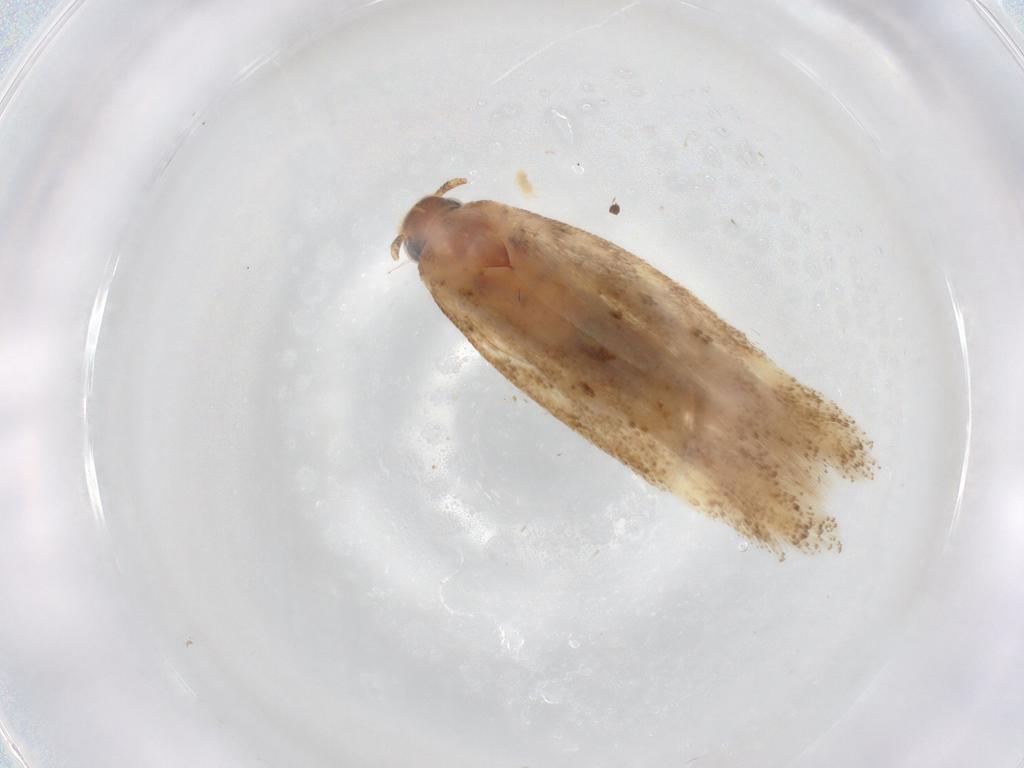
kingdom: Animalia
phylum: Arthropoda
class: Insecta
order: Lepidoptera
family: Gelechiidae
